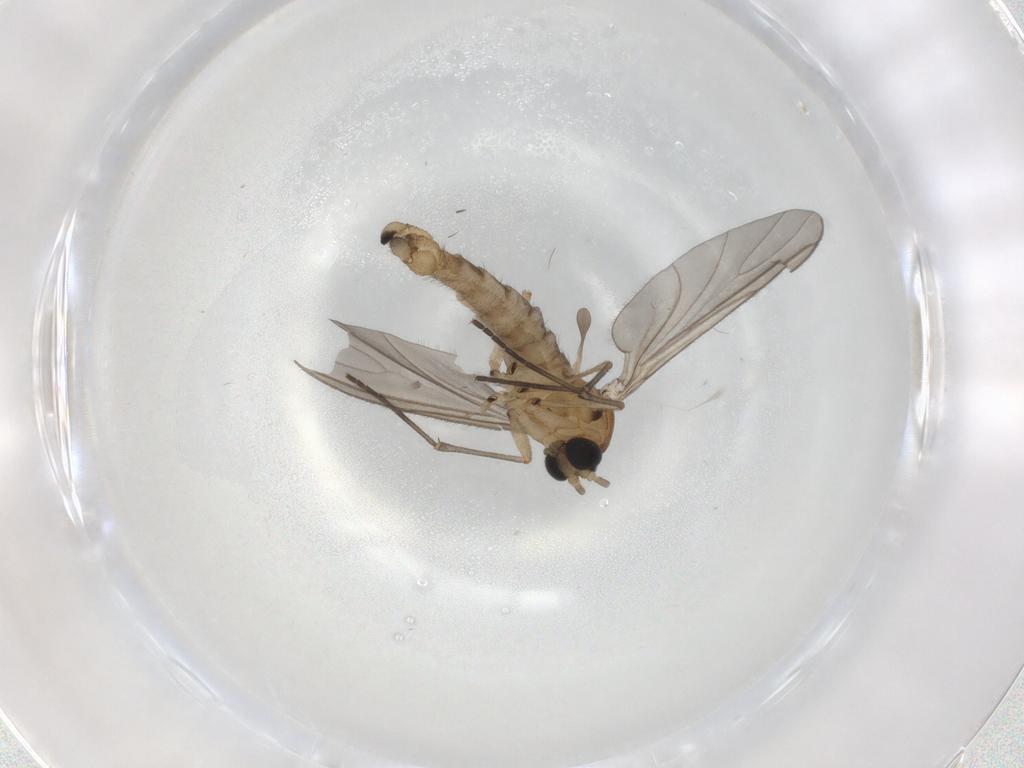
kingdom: Animalia
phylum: Arthropoda
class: Insecta
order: Diptera
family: Sciaridae
